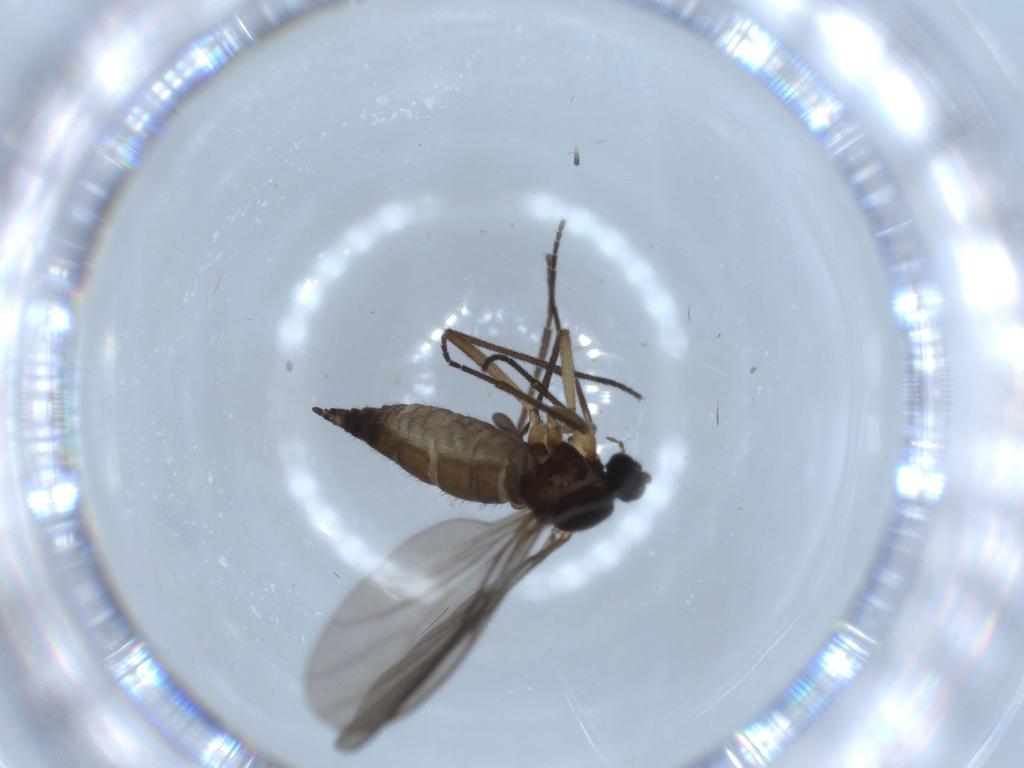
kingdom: Animalia
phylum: Arthropoda
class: Insecta
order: Diptera
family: Sciaridae
